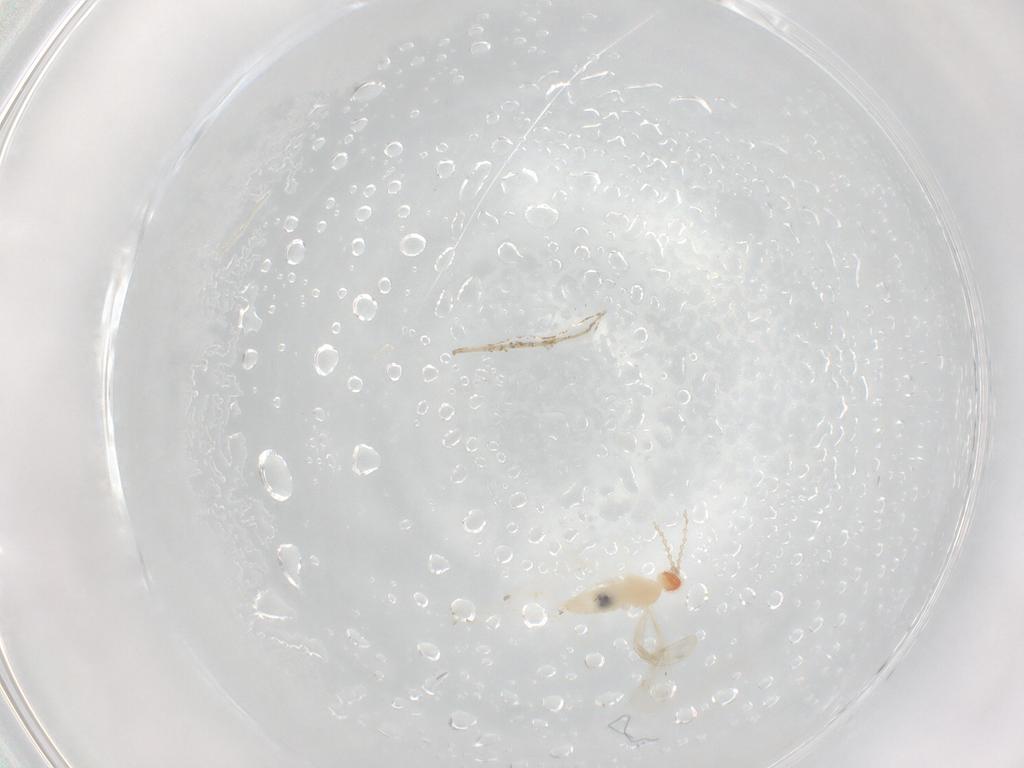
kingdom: Animalia
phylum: Arthropoda
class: Insecta
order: Diptera
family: Cecidomyiidae
